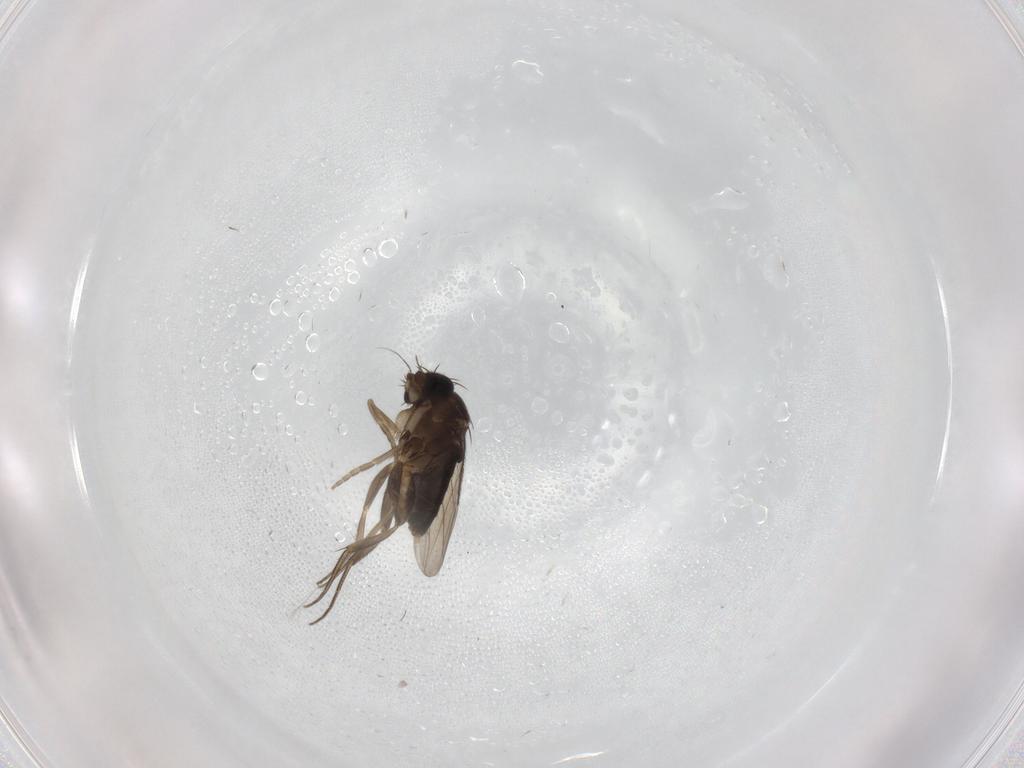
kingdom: Animalia
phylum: Arthropoda
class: Insecta
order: Diptera
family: Phoridae
